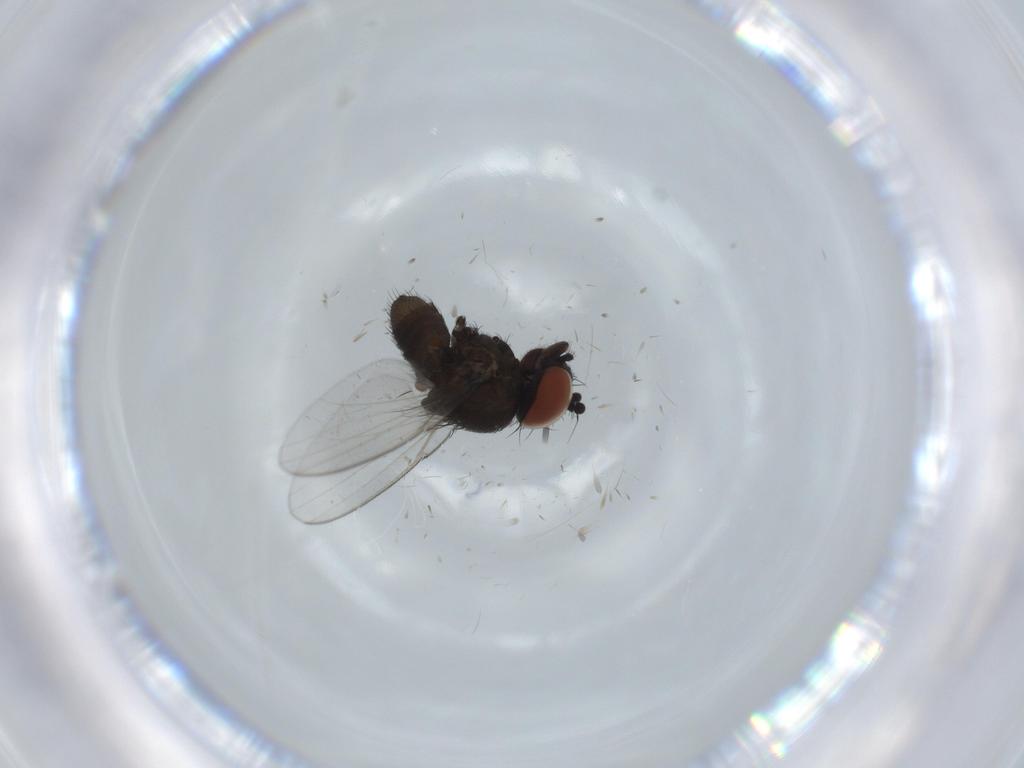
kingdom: Animalia
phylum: Arthropoda
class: Insecta
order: Diptera
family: Milichiidae
